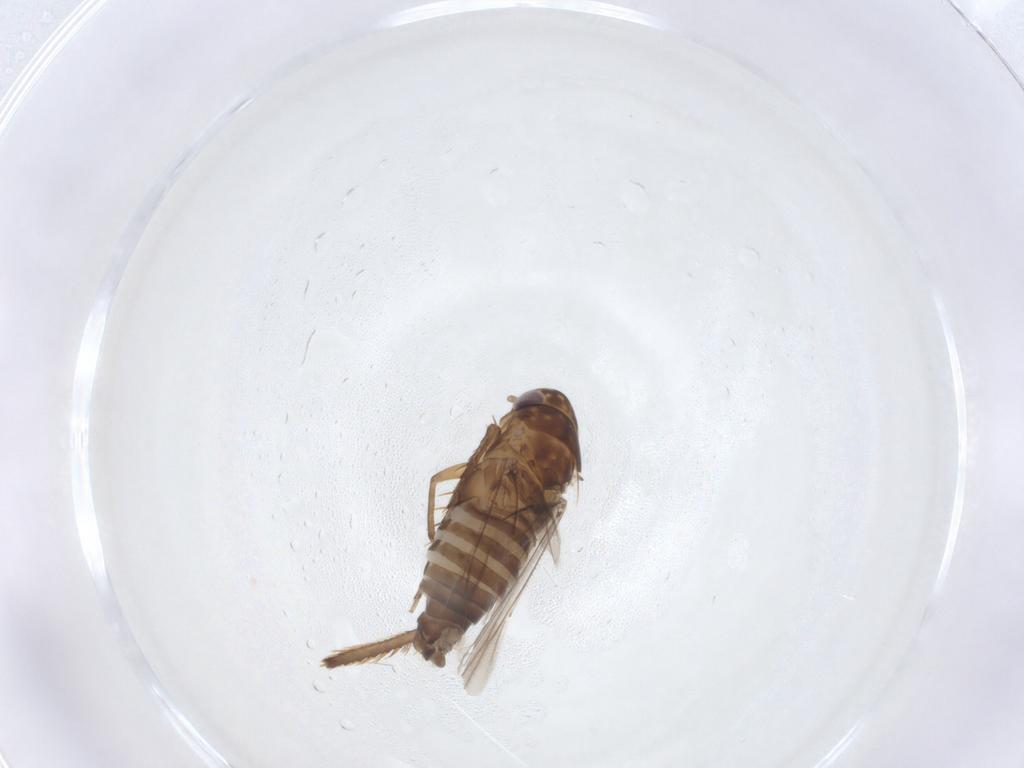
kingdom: Animalia
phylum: Arthropoda
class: Insecta
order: Hemiptera
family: Cicadellidae
